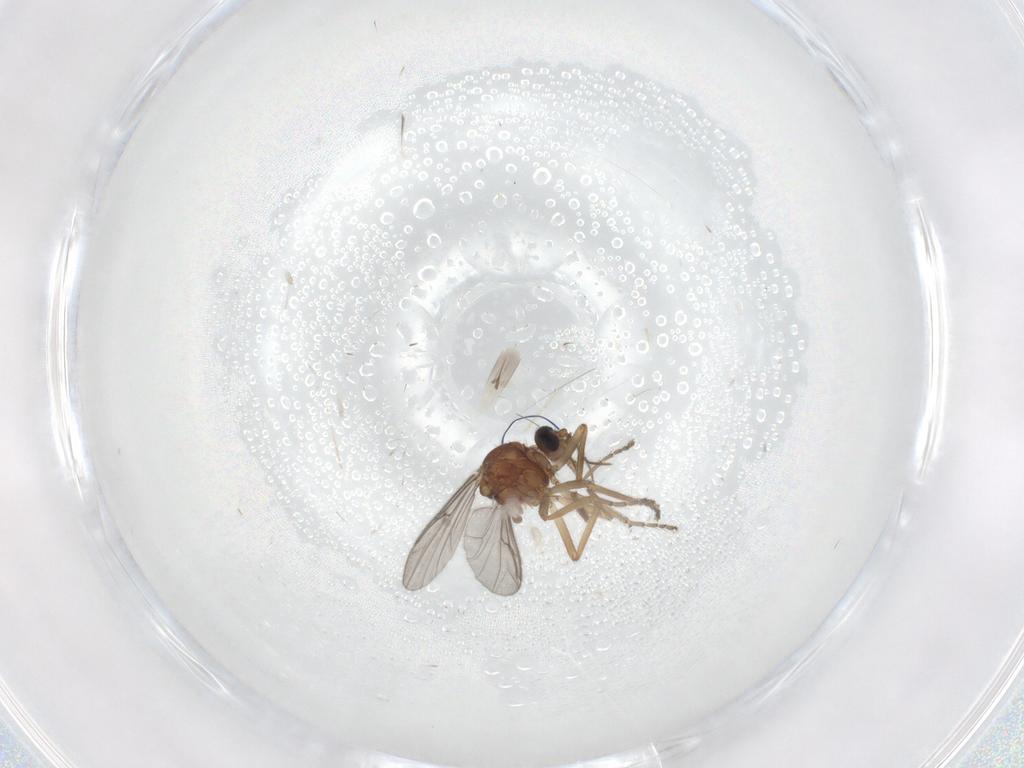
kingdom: Animalia
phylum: Arthropoda
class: Insecta
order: Diptera
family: Ceratopogonidae
